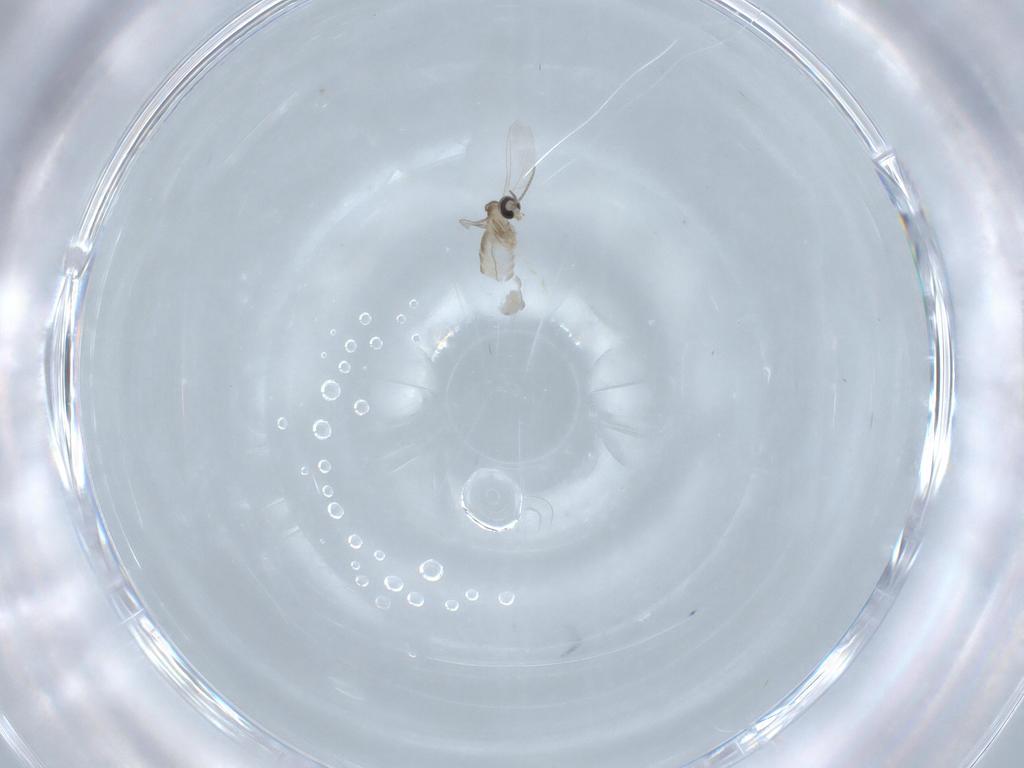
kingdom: Animalia
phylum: Arthropoda
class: Insecta
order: Diptera
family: Cecidomyiidae
